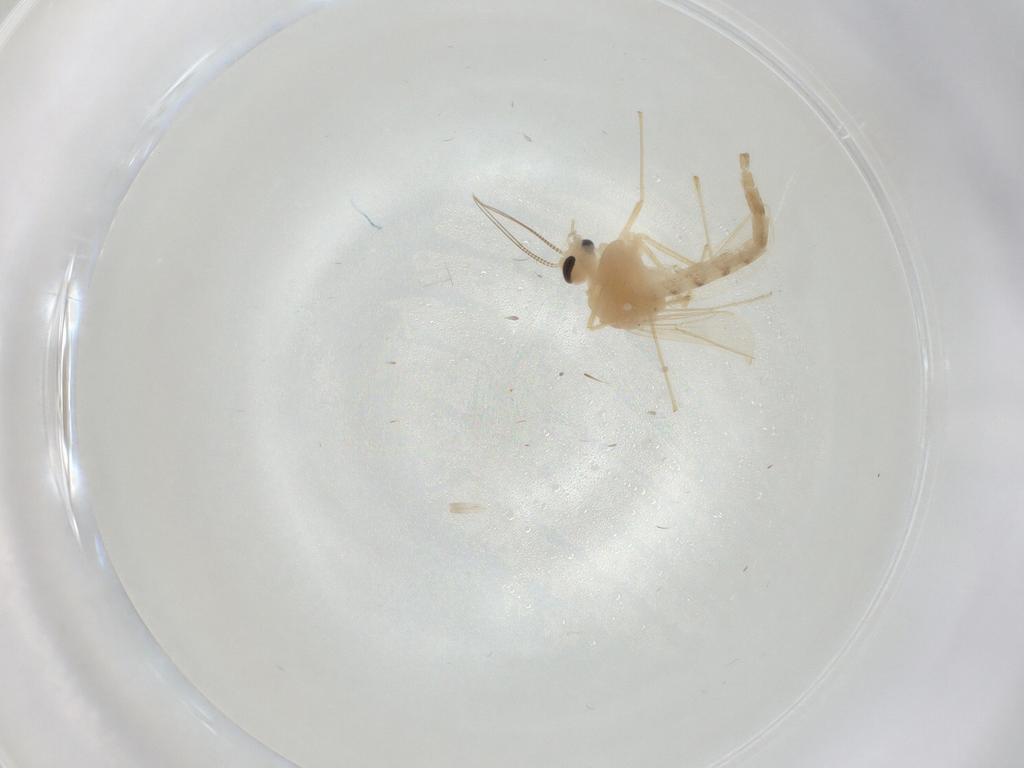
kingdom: Animalia
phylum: Arthropoda
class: Insecta
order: Diptera
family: Chironomidae
